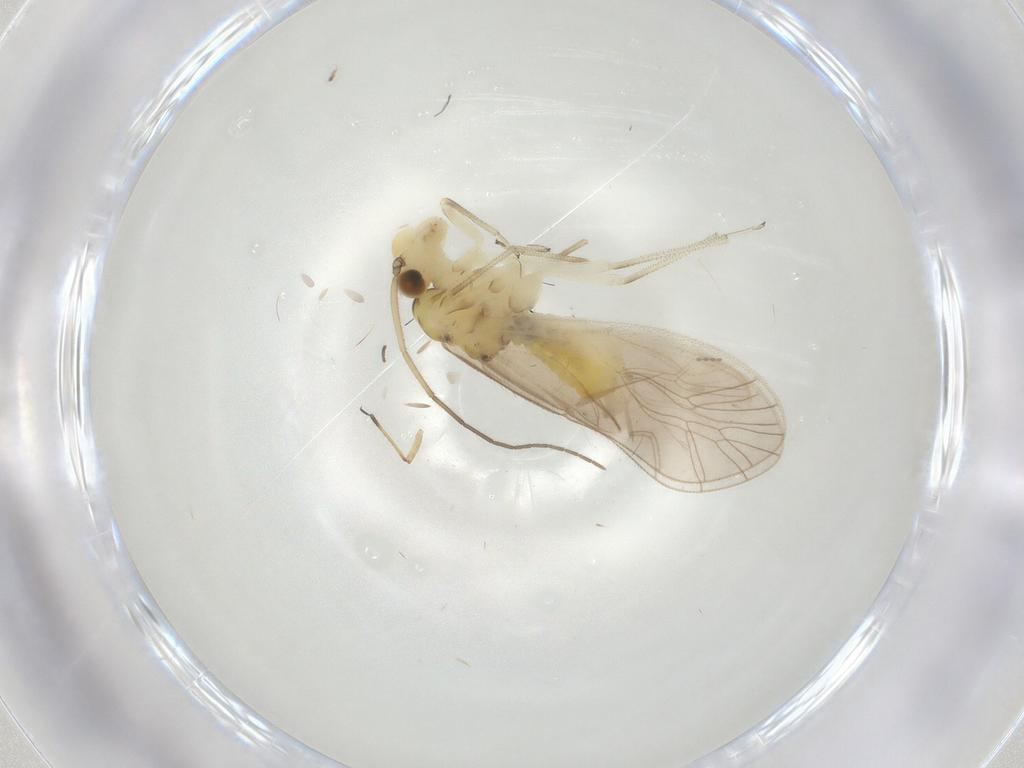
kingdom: Animalia
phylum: Arthropoda
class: Insecta
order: Psocodea
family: Caeciliusidae
